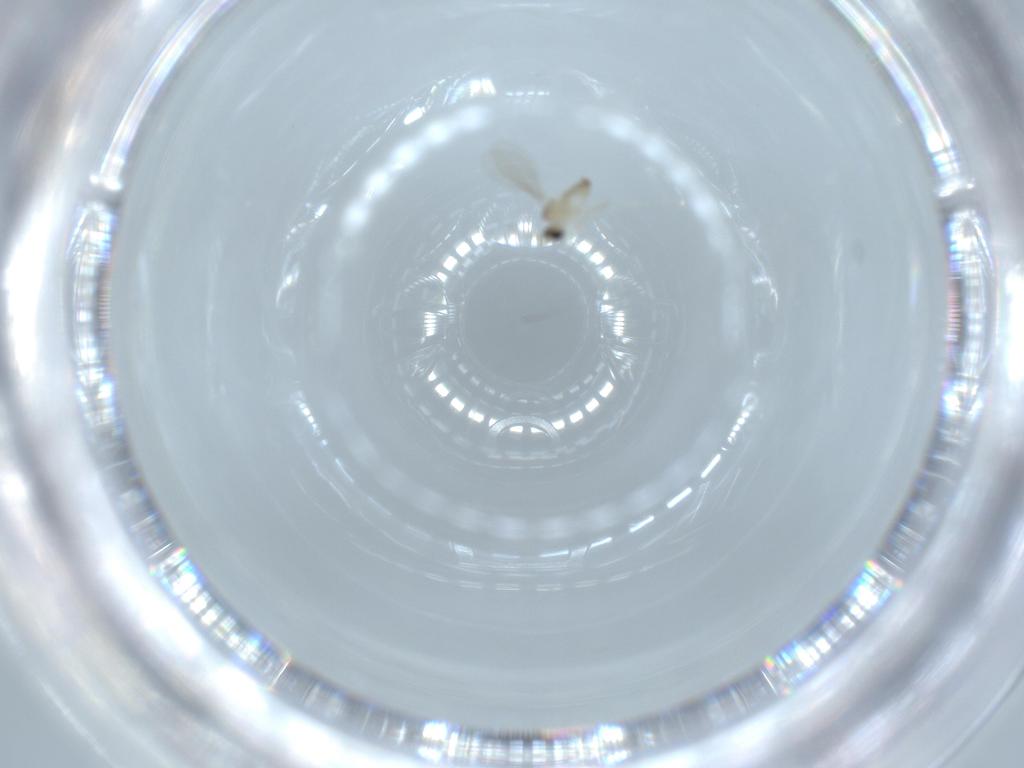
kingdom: Animalia
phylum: Arthropoda
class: Insecta
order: Diptera
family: Cecidomyiidae
